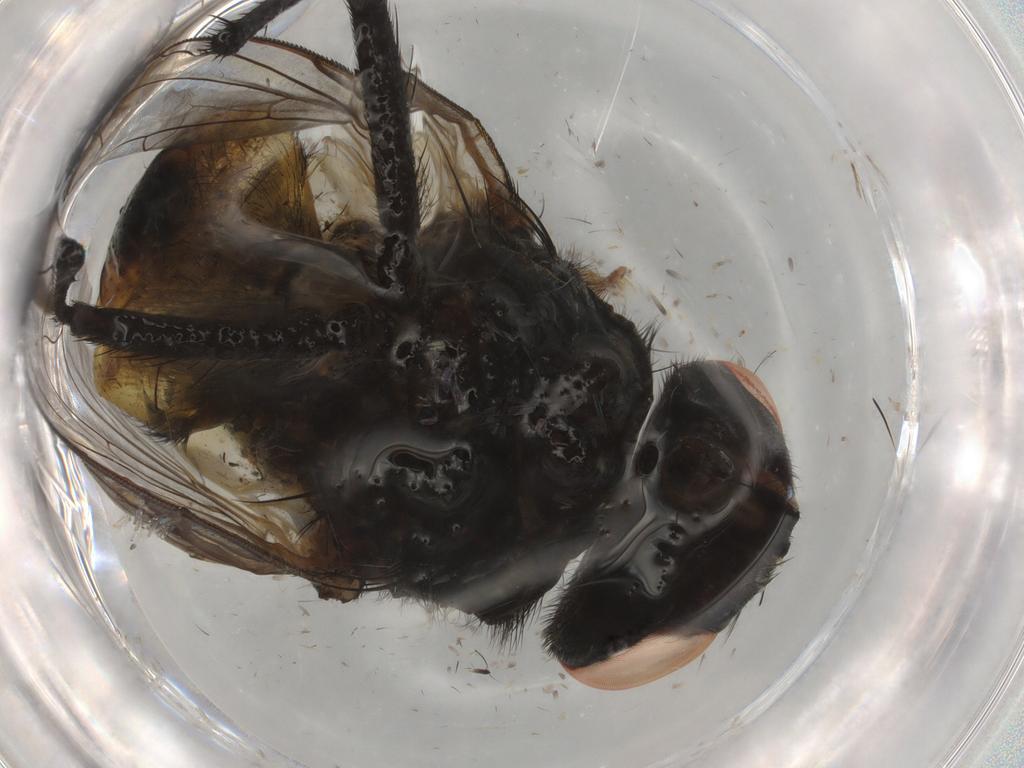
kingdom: Animalia
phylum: Arthropoda
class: Insecta
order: Diptera
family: Muscidae
